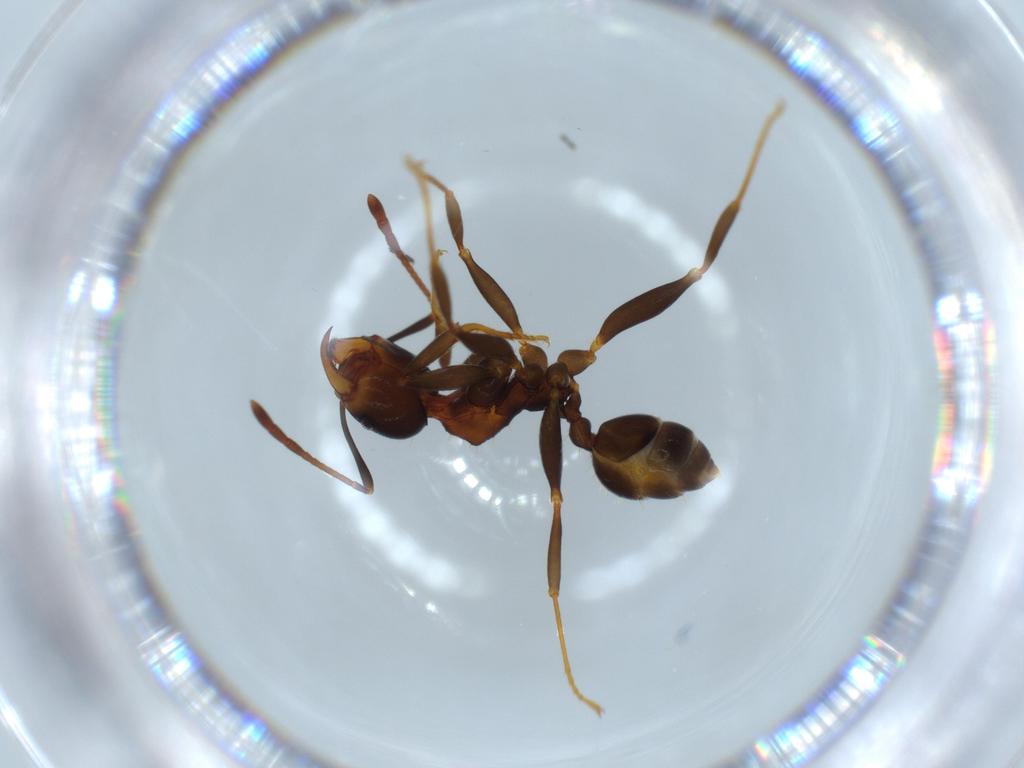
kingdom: Animalia
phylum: Arthropoda
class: Insecta
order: Hymenoptera
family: Formicidae
